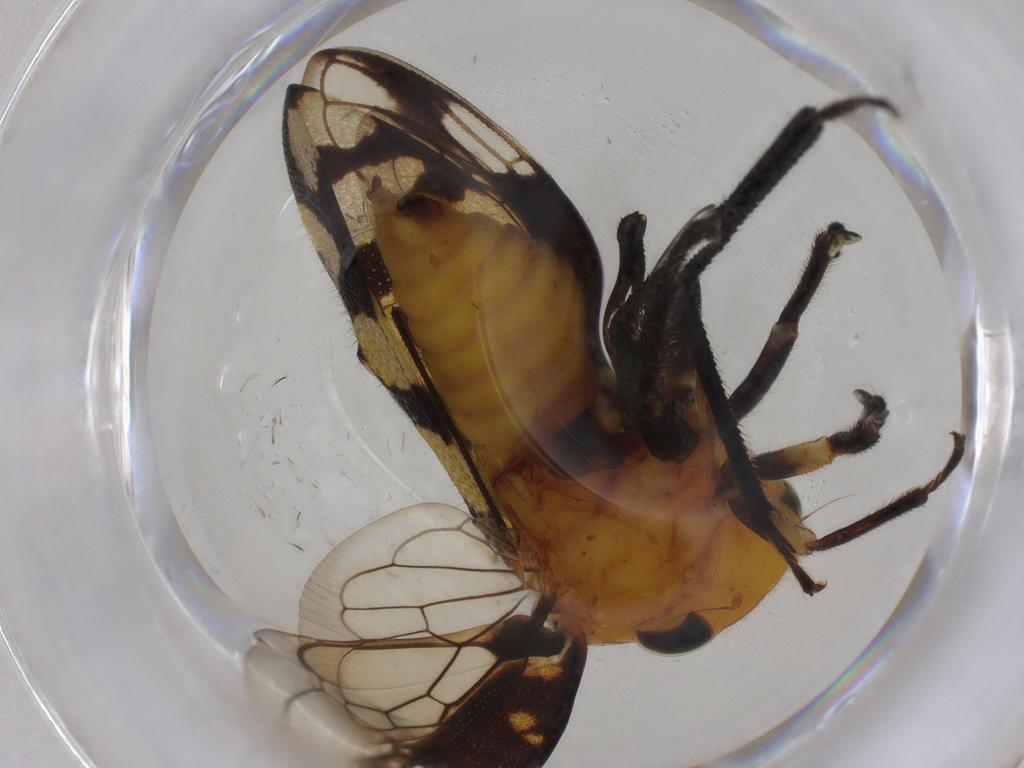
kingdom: Animalia
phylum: Arthropoda
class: Insecta
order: Hemiptera
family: Membracidae
